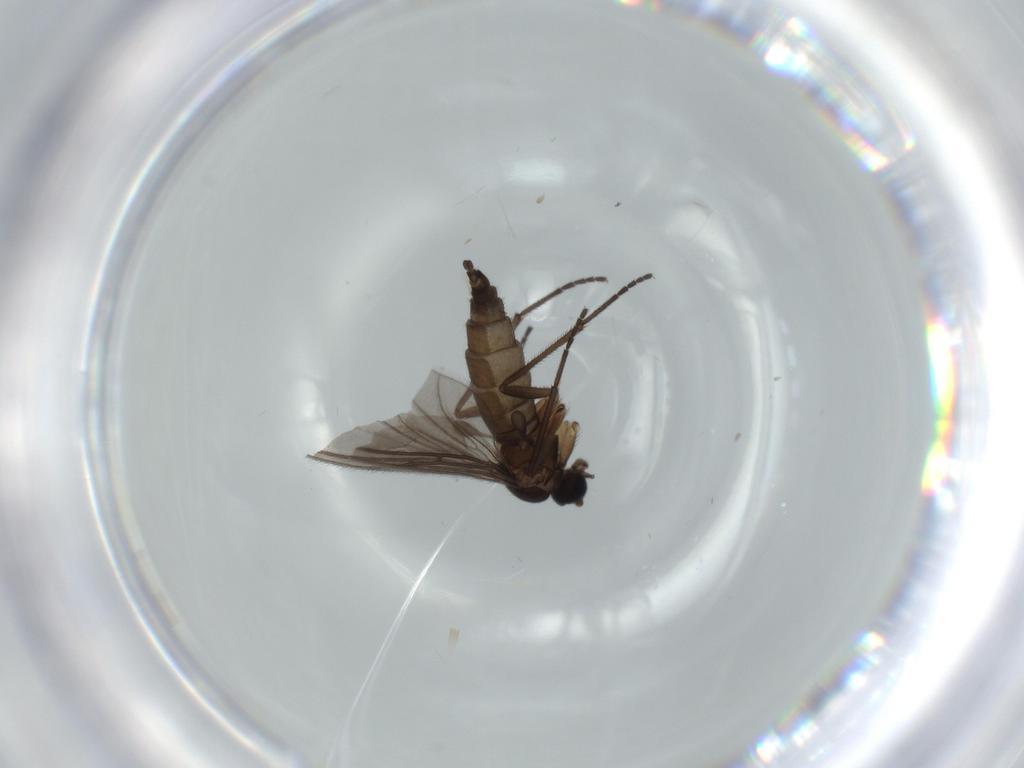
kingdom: Animalia
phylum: Arthropoda
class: Insecta
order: Diptera
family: Sciaridae
